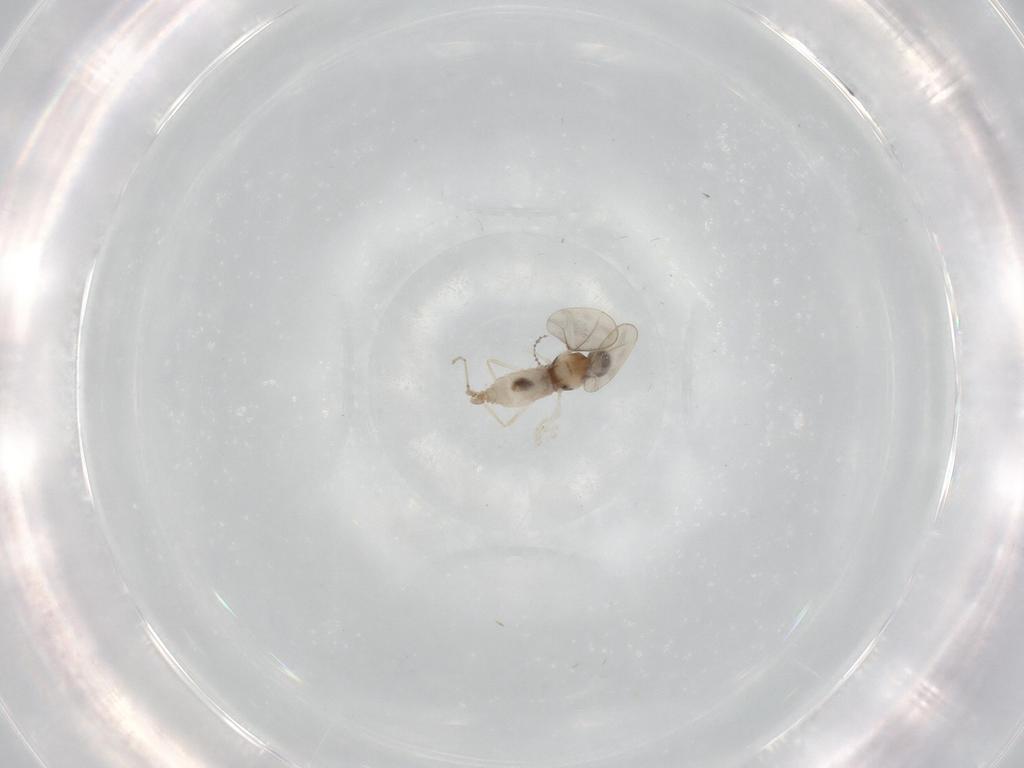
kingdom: Animalia
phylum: Arthropoda
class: Insecta
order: Diptera
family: Cecidomyiidae
